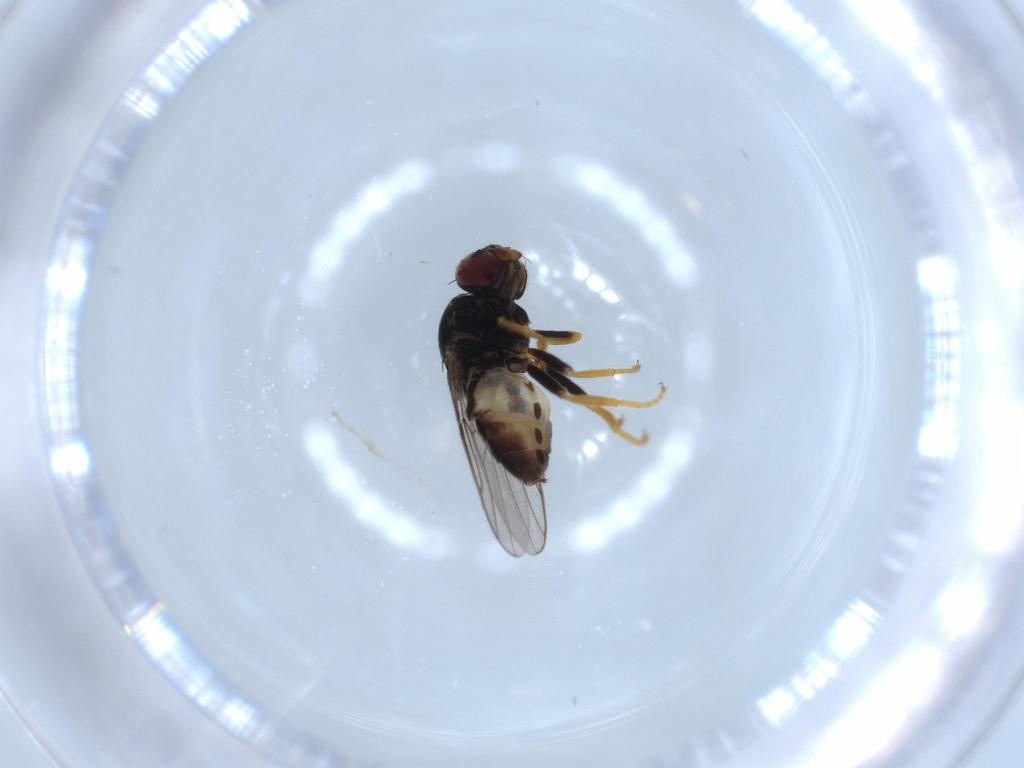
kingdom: Animalia
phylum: Arthropoda
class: Insecta
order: Diptera
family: Chloropidae
